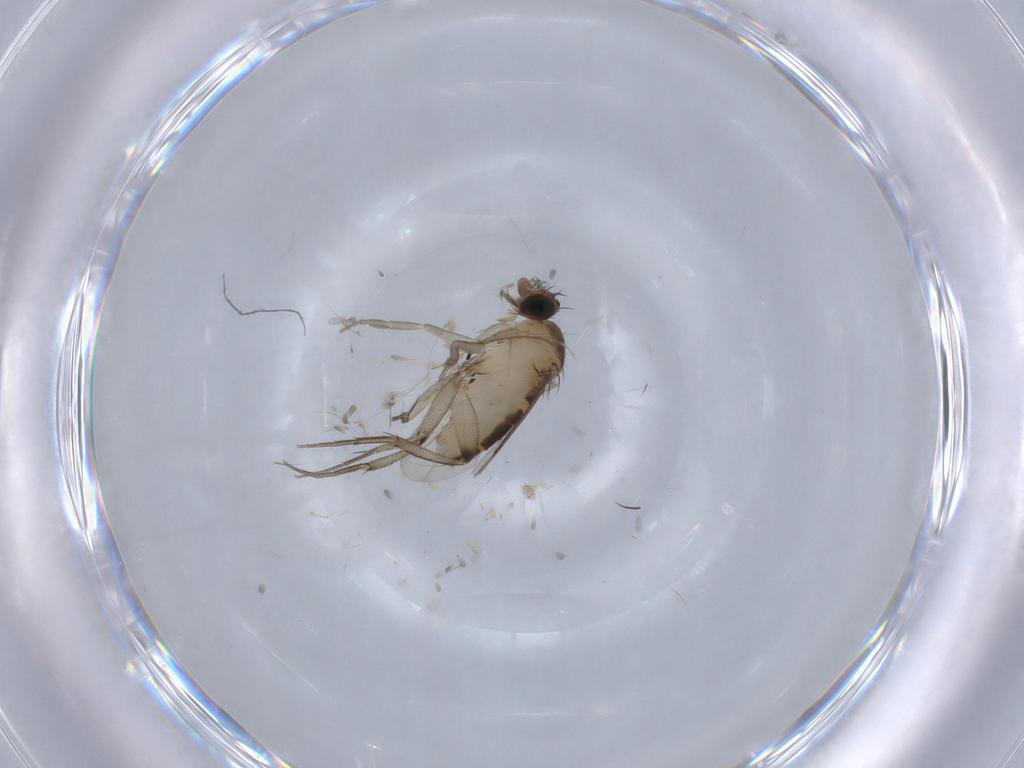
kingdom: Animalia
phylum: Arthropoda
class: Insecta
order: Diptera
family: Phoridae
